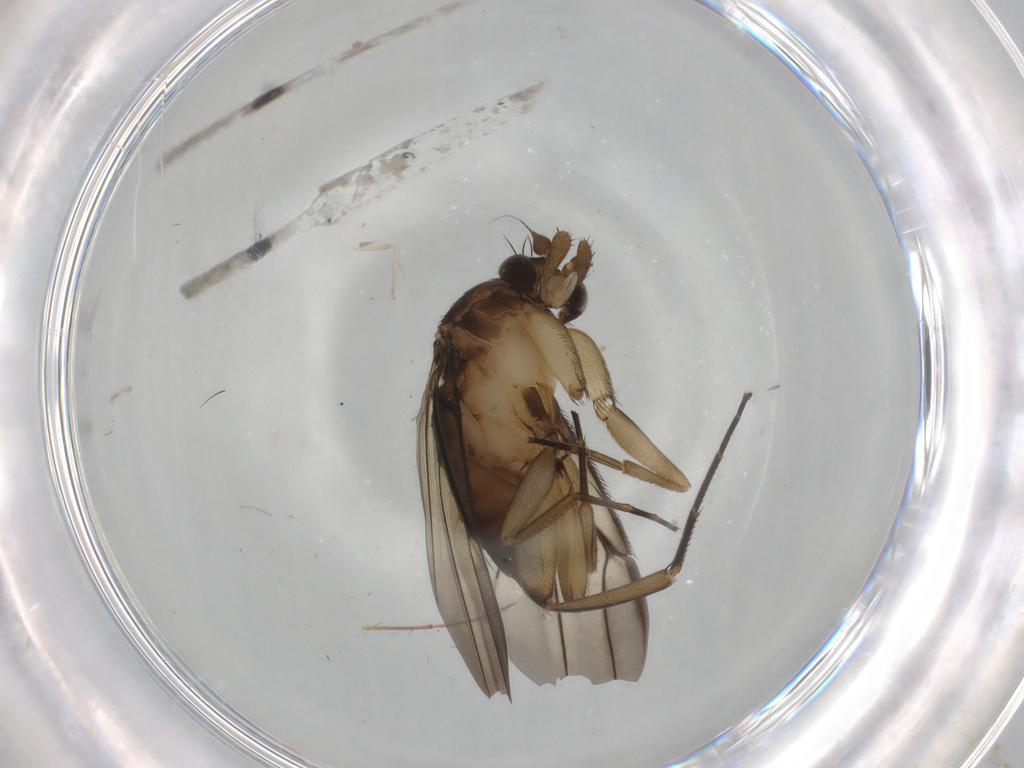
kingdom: Animalia
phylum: Arthropoda
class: Insecta
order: Diptera
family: Phoridae
